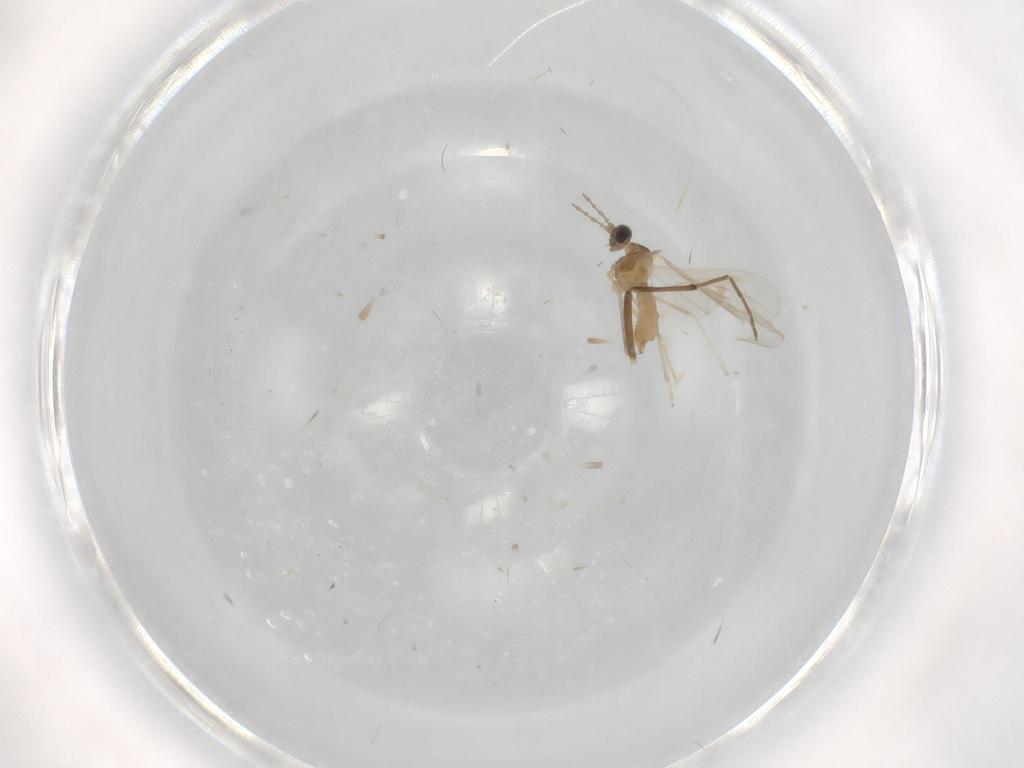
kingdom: Animalia
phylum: Arthropoda
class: Insecta
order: Diptera
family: Cecidomyiidae
